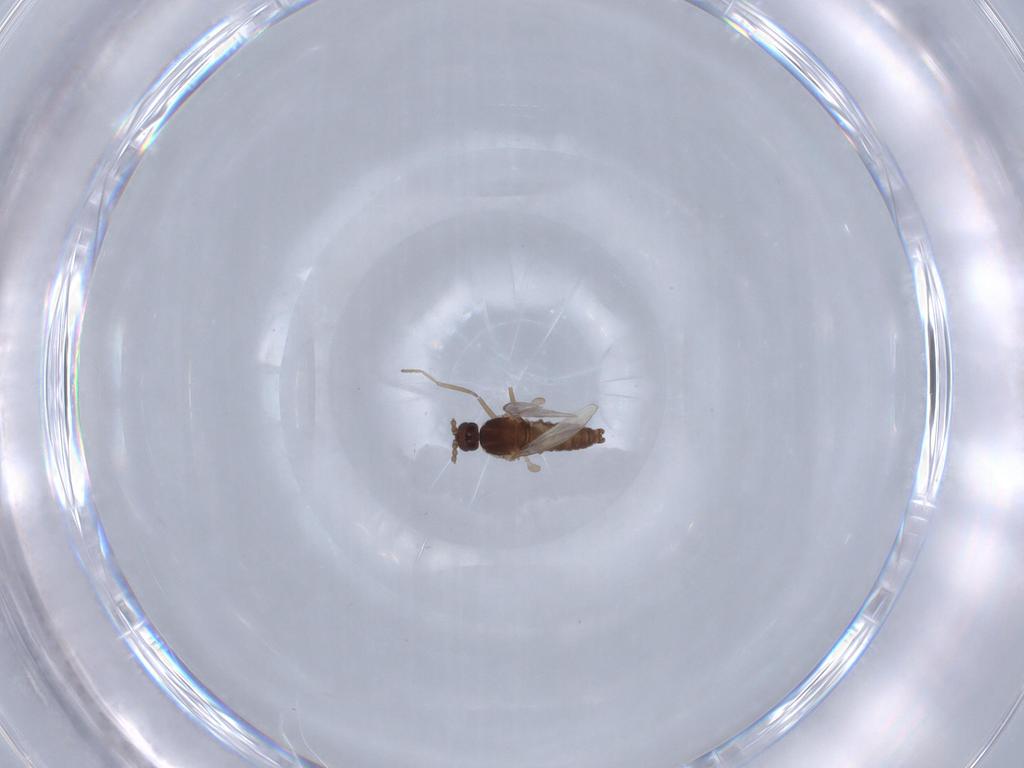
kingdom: Animalia
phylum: Arthropoda
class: Insecta
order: Diptera
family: Cecidomyiidae
